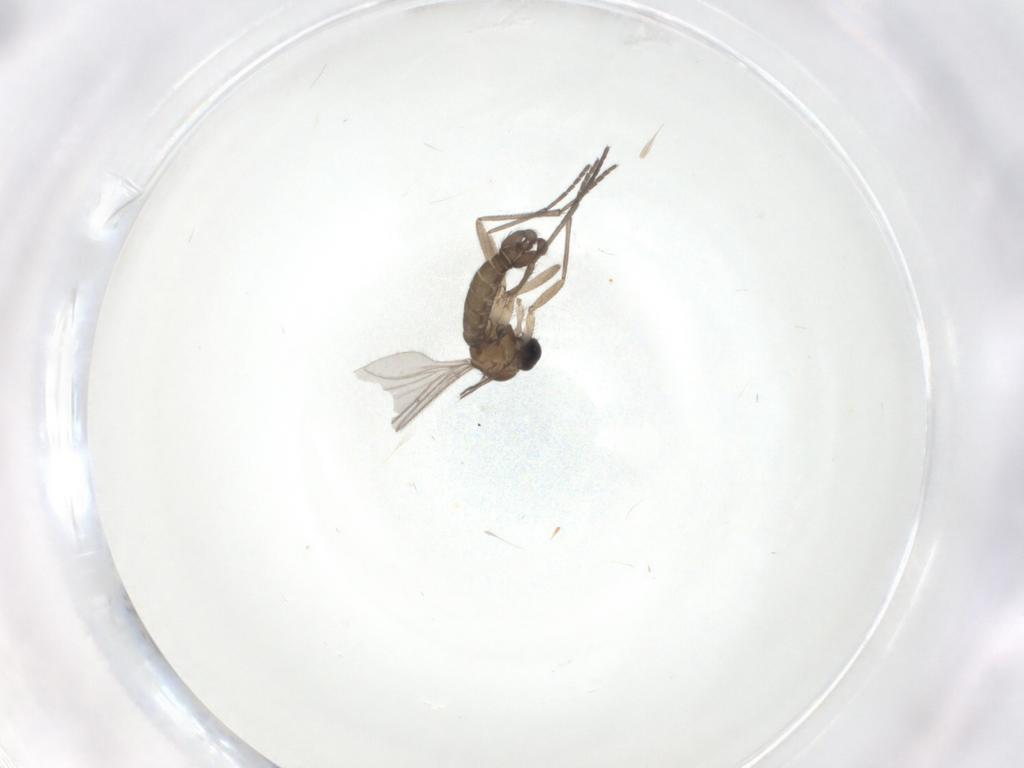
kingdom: Animalia
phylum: Arthropoda
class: Insecta
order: Diptera
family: Sciaridae
